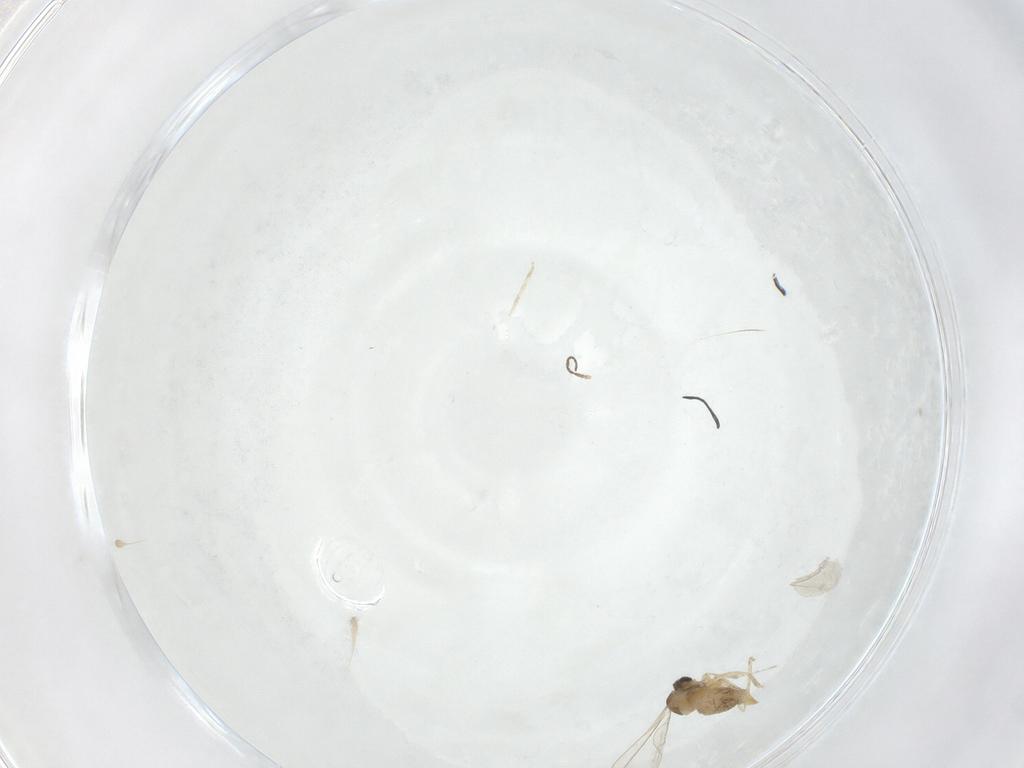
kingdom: Animalia
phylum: Arthropoda
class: Insecta
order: Diptera
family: Cecidomyiidae
